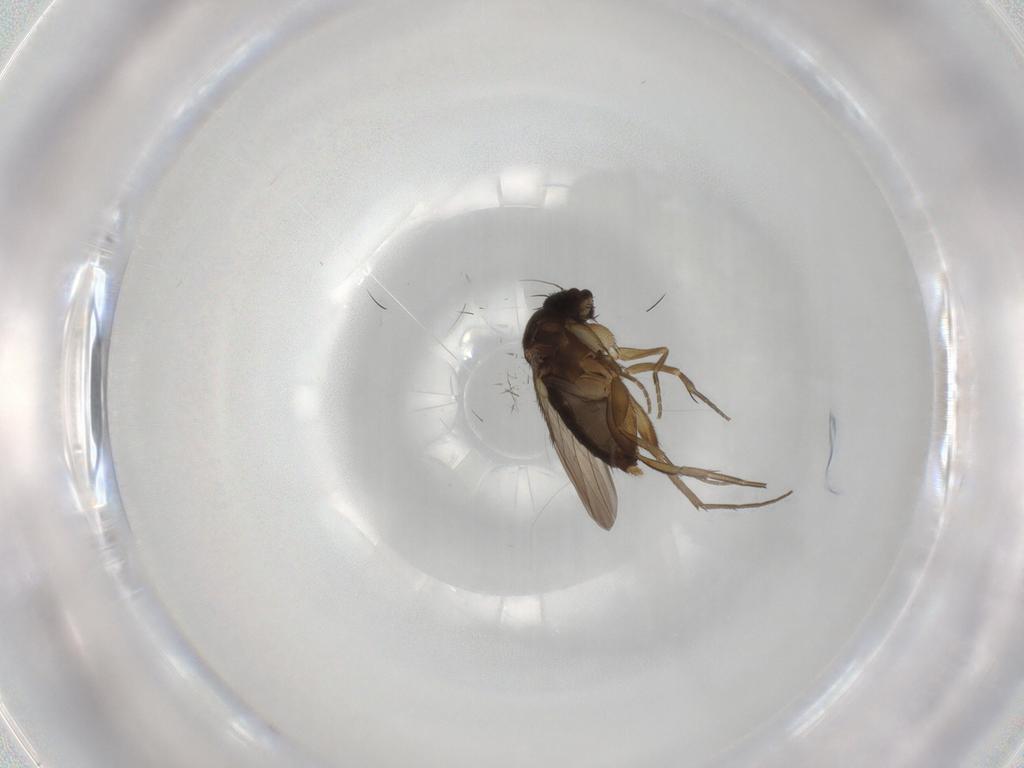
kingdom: Animalia
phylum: Arthropoda
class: Insecta
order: Diptera
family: Phoridae
